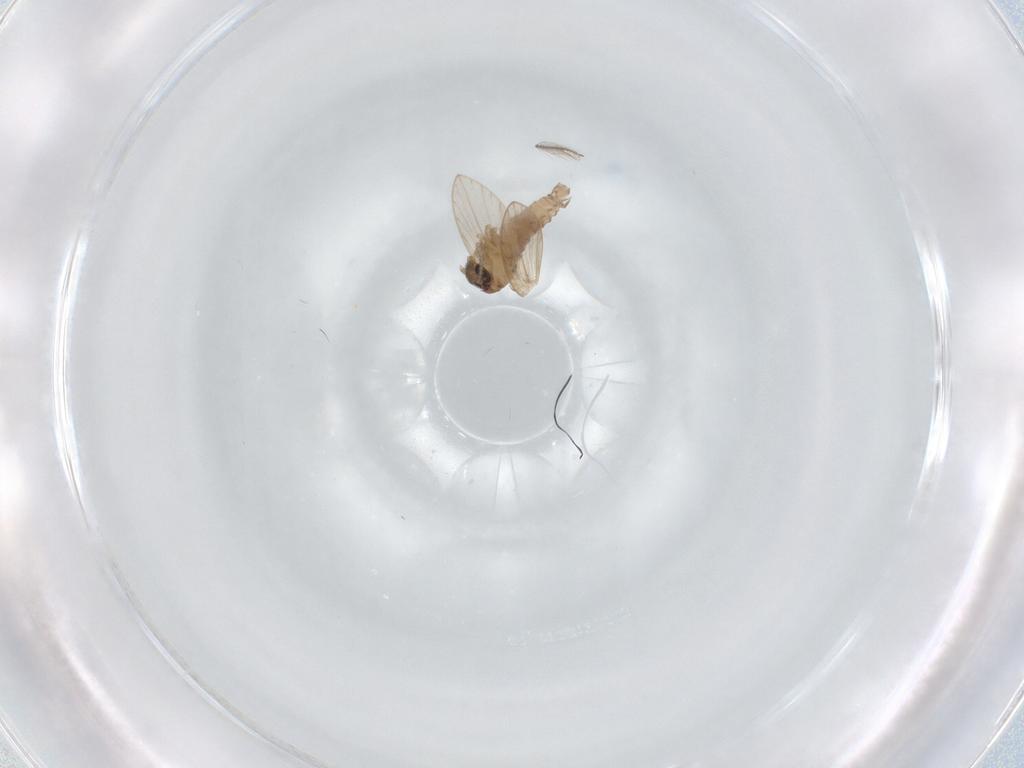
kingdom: Animalia
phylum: Arthropoda
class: Insecta
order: Diptera
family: Psychodidae
